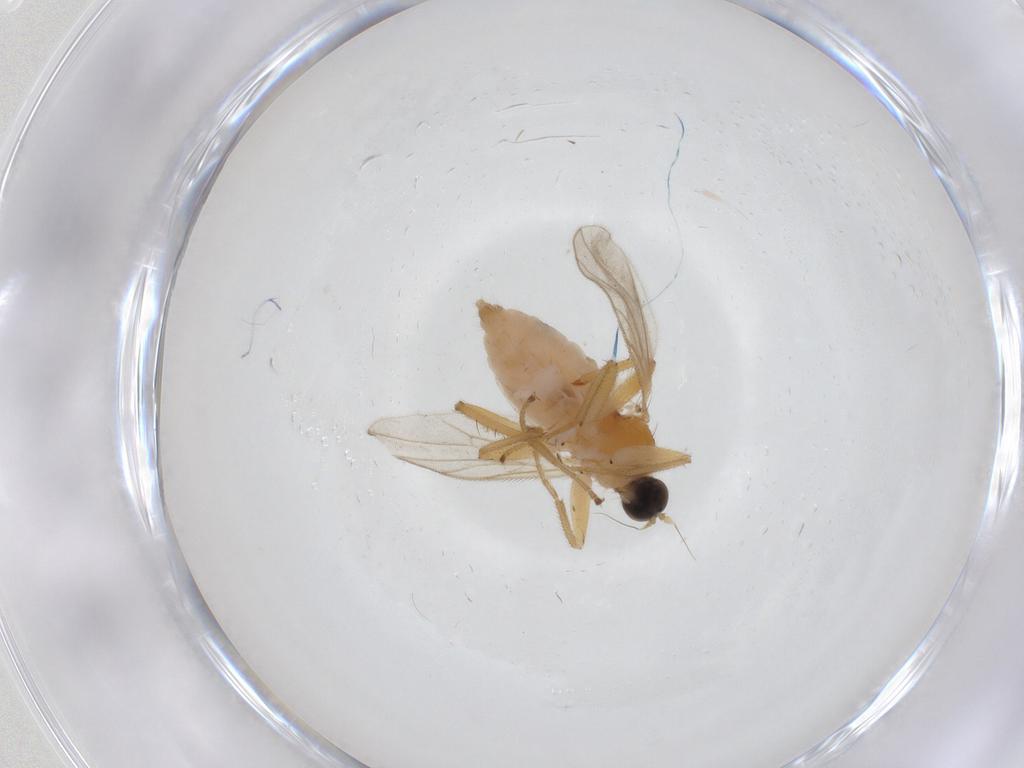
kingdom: Animalia
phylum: Arthropoda
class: Insecta
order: Diptera
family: Hybotidae
